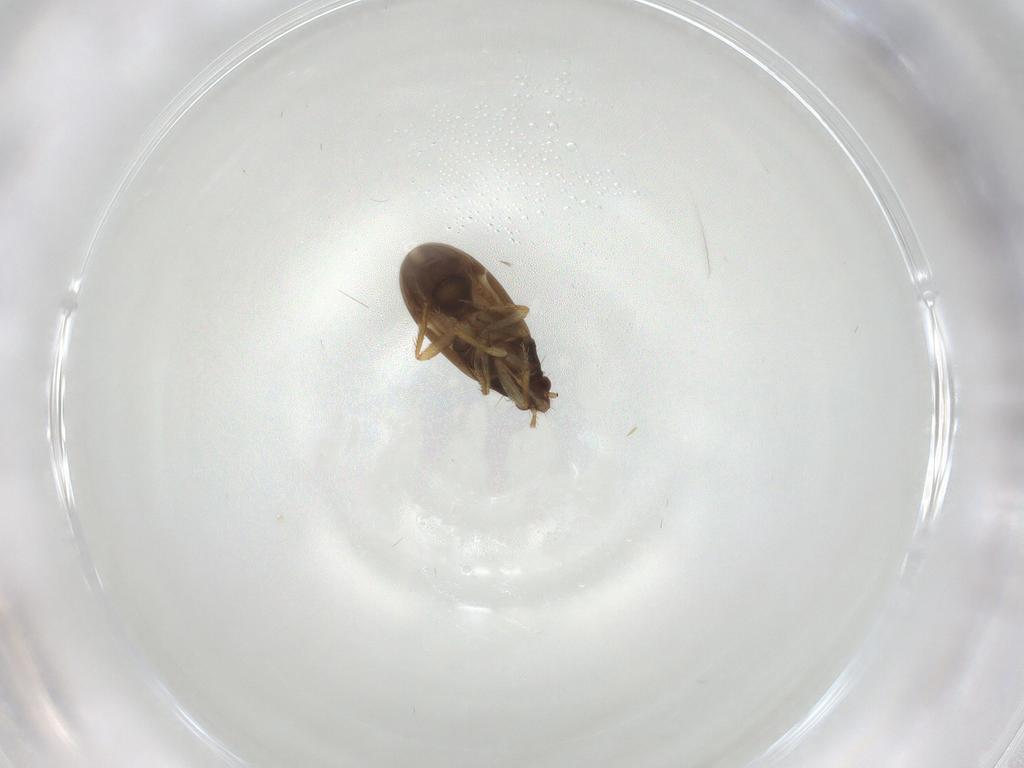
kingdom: Animalia
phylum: Arthropoda
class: Insecta
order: Hemiptera
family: Ceratocombidae
